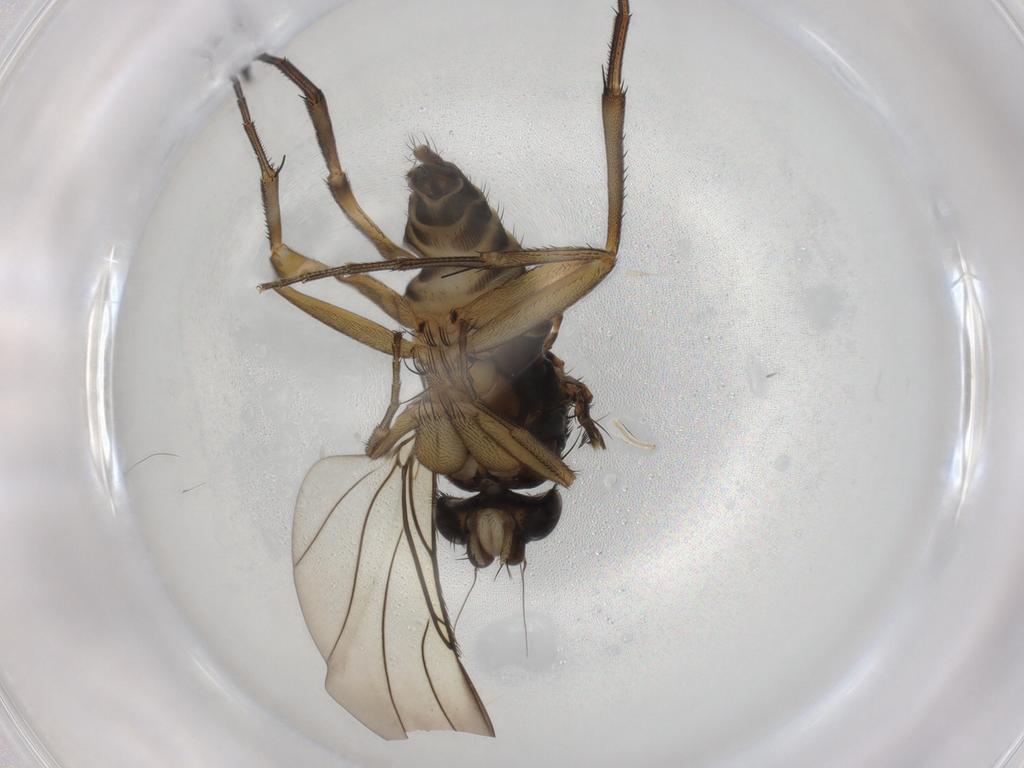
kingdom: Animalia
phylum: Arthropoda
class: Insecta
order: Diptera
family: Phoridae
